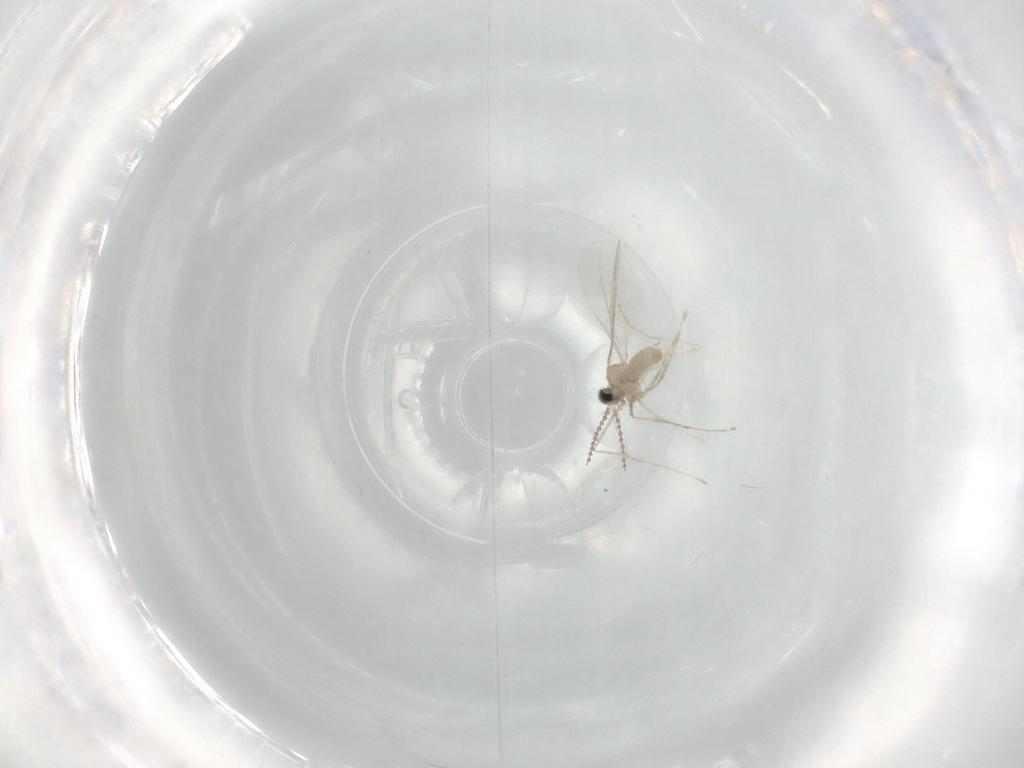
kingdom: Animalia
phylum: Arthropoda
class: Insecta
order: Diptera
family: Cecidomyiidae
